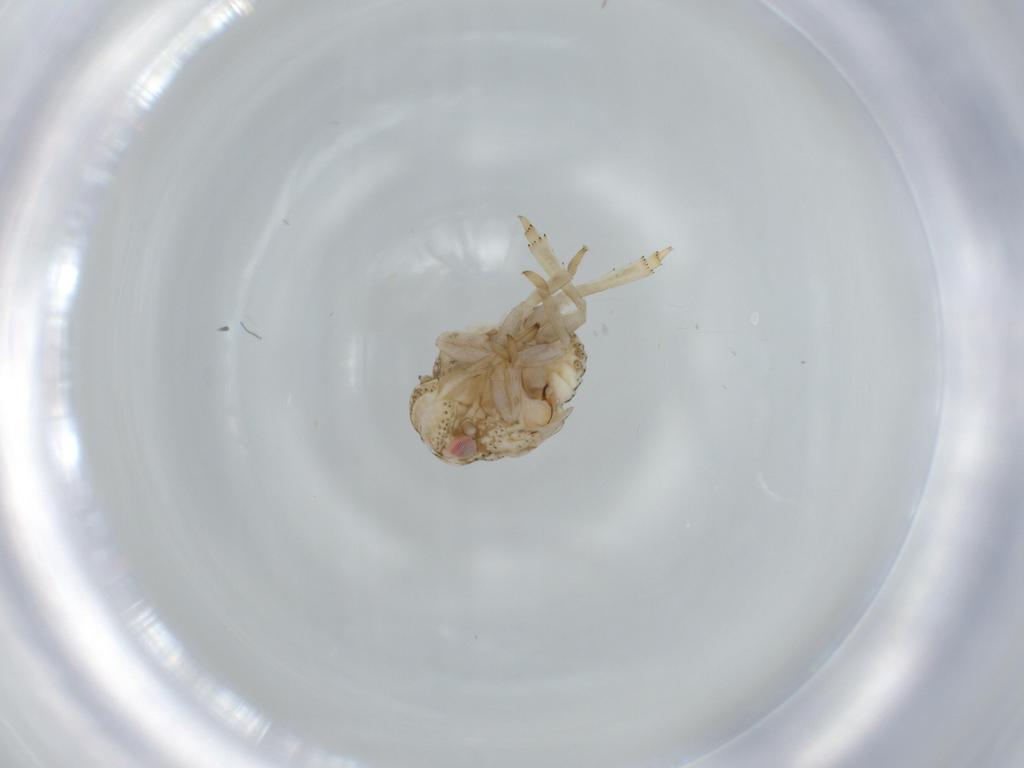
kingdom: Animalia
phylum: Arthropoda
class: Insecta
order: Hemiptera
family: Acanaloniidae
